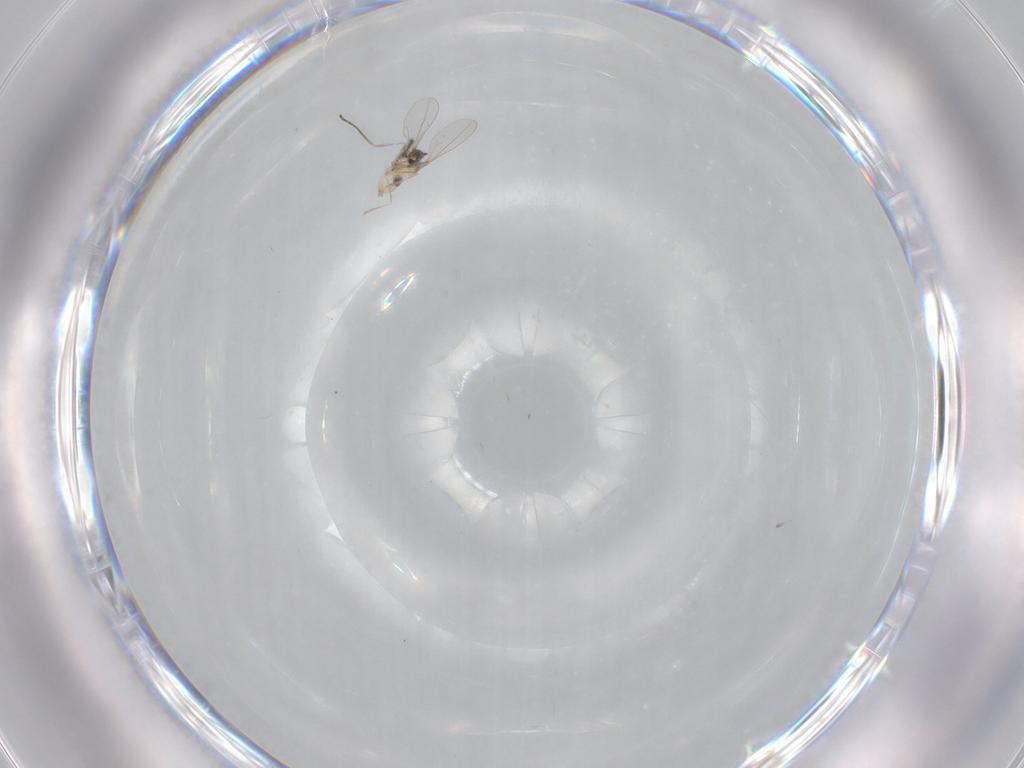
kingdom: Animalia
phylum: Arthropoda
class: Insecta
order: Diptera
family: Cecidomyiidae
